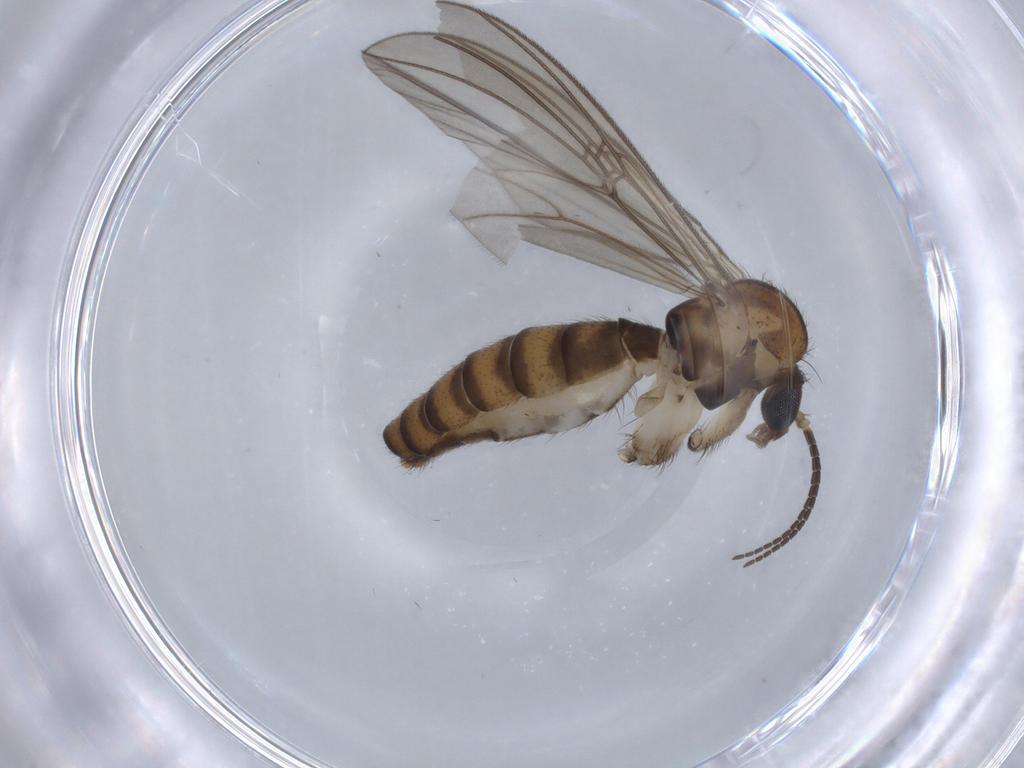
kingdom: Animalia
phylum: Arthropoda
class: Insecta
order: Diptera
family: Mycetophilidae
